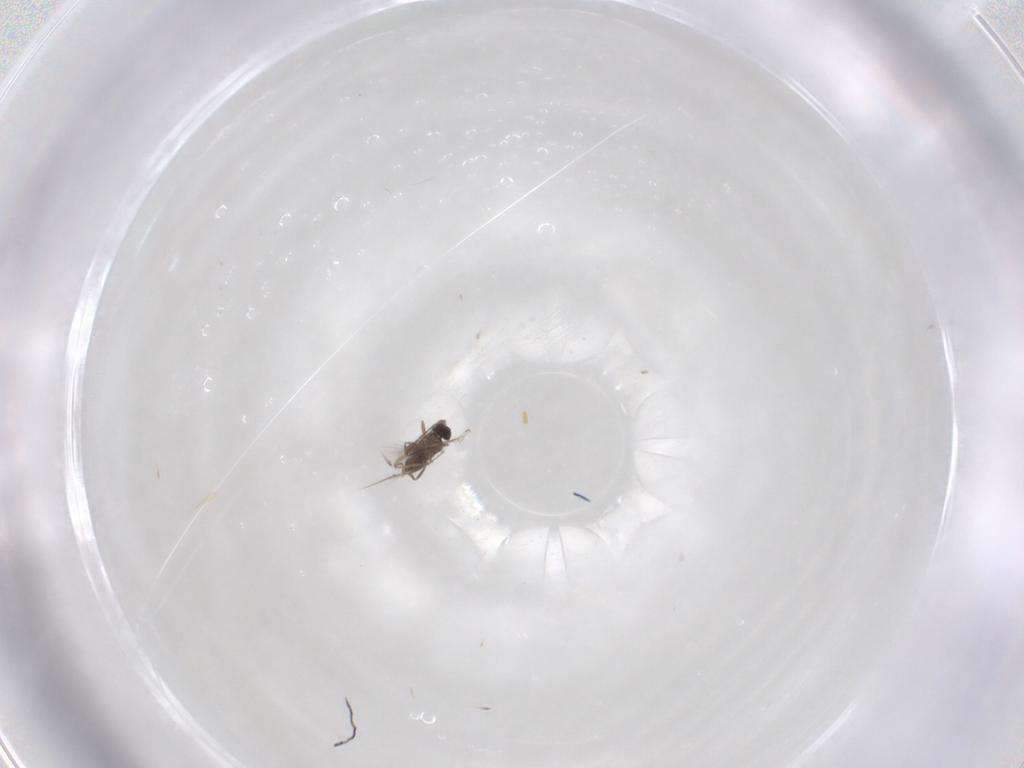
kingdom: Animalia
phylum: Arthropoda
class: Insecta
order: Hymenoptera
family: Mymaridae
